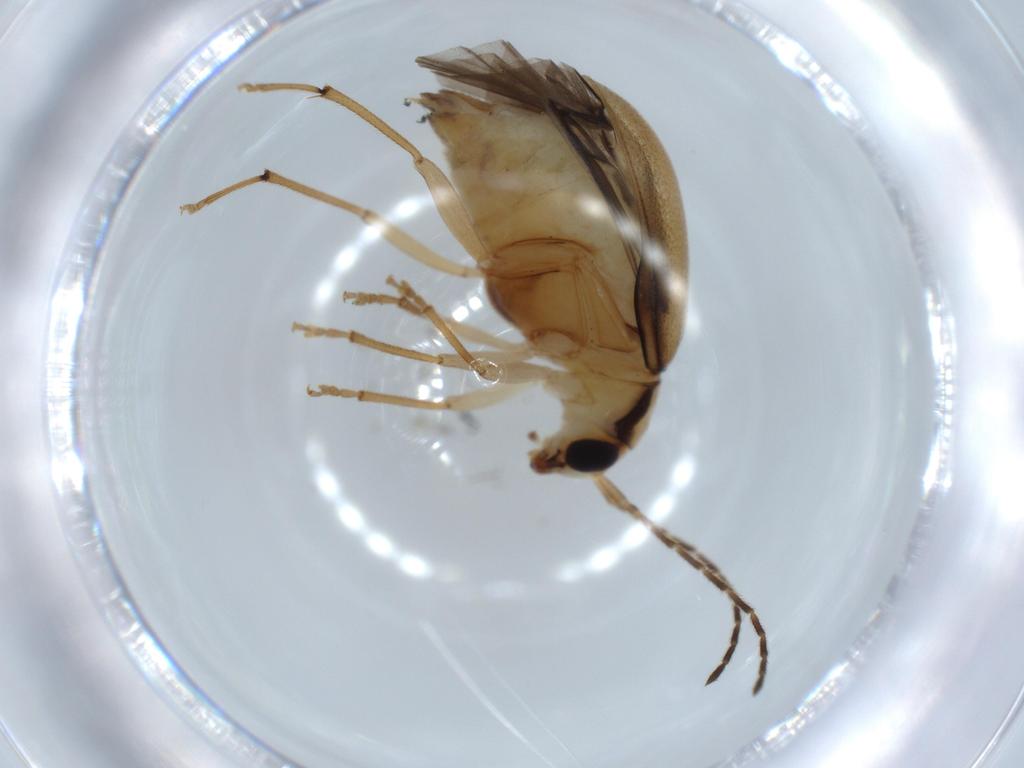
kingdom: Animalia
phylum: Arthropoda
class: Insecta
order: Coleoptera
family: Chrysomelidae
